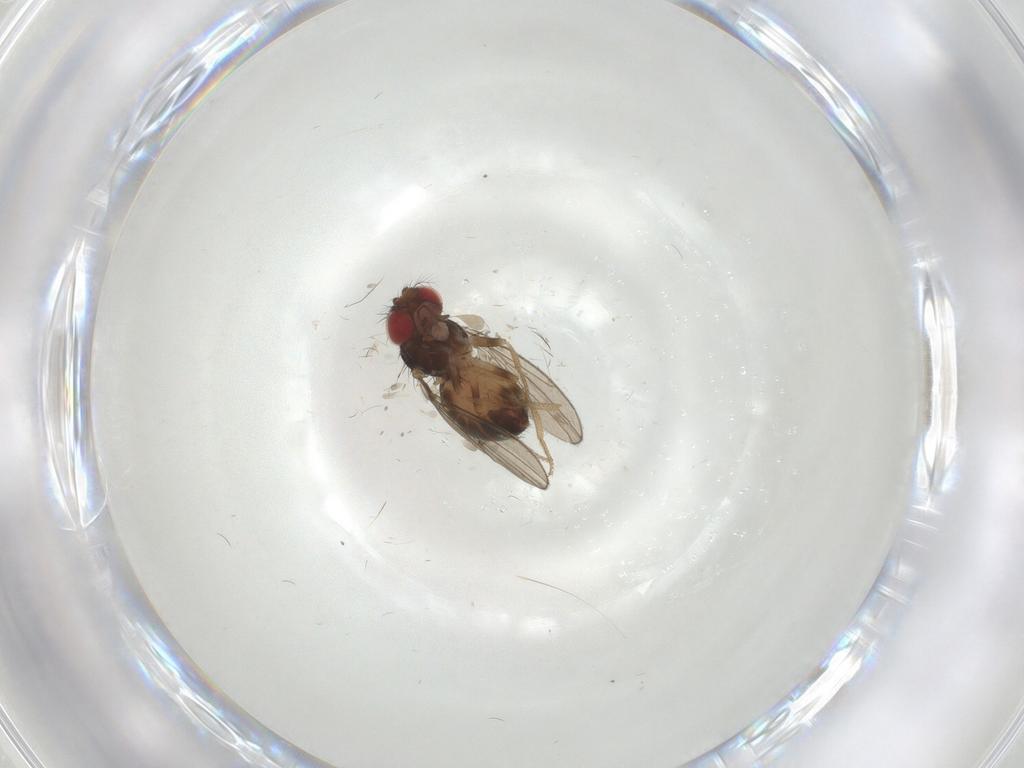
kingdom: Animalia
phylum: Arthropoda
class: Insecta
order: Diptera
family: Drosophilidae
